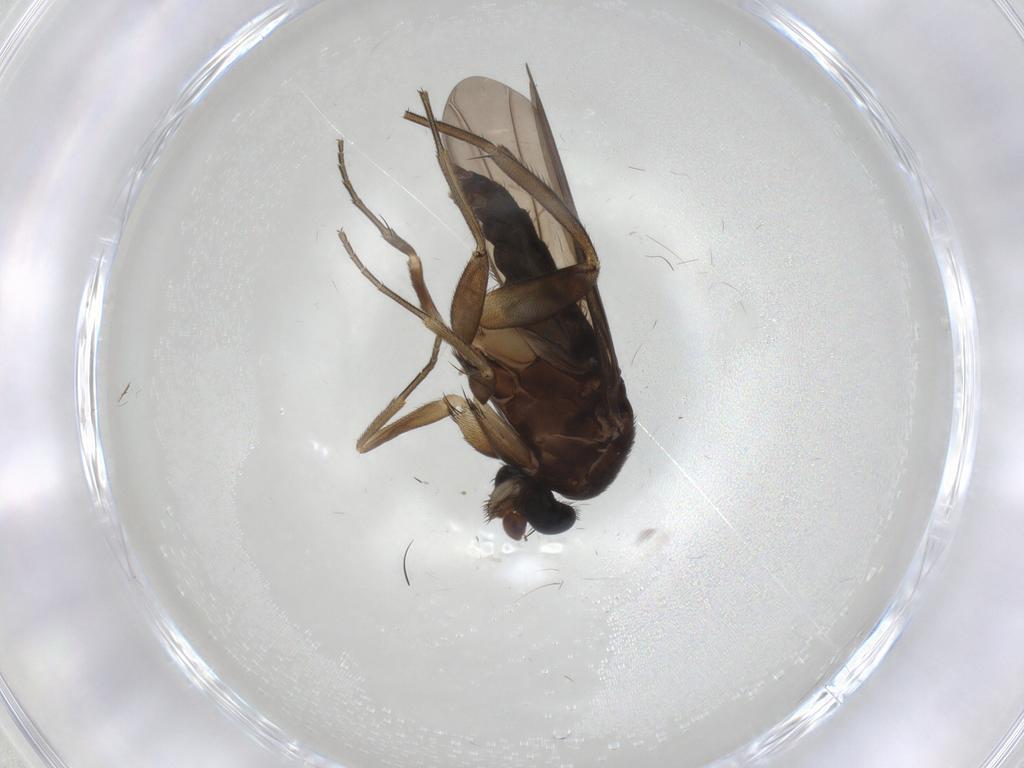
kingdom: Animalia
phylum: Arthropoda
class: Insecta
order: Diptera
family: Phoridae
